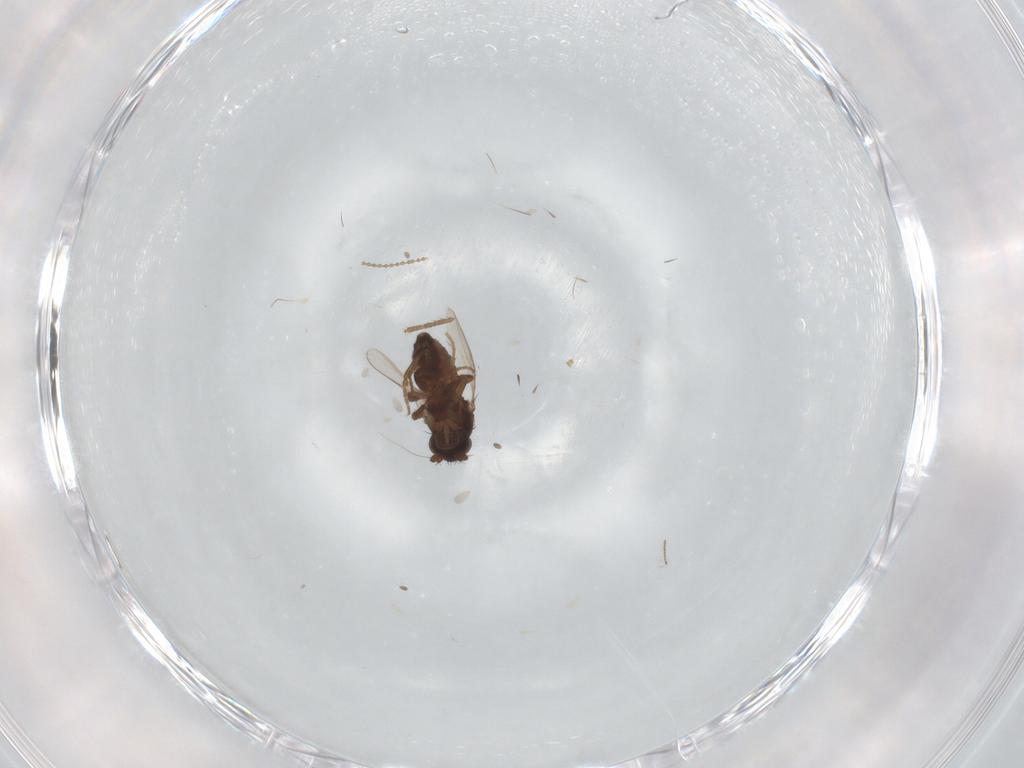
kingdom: Animalia
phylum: Arthropoda
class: Insecta
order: Diptera
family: Sphaeroceridae
